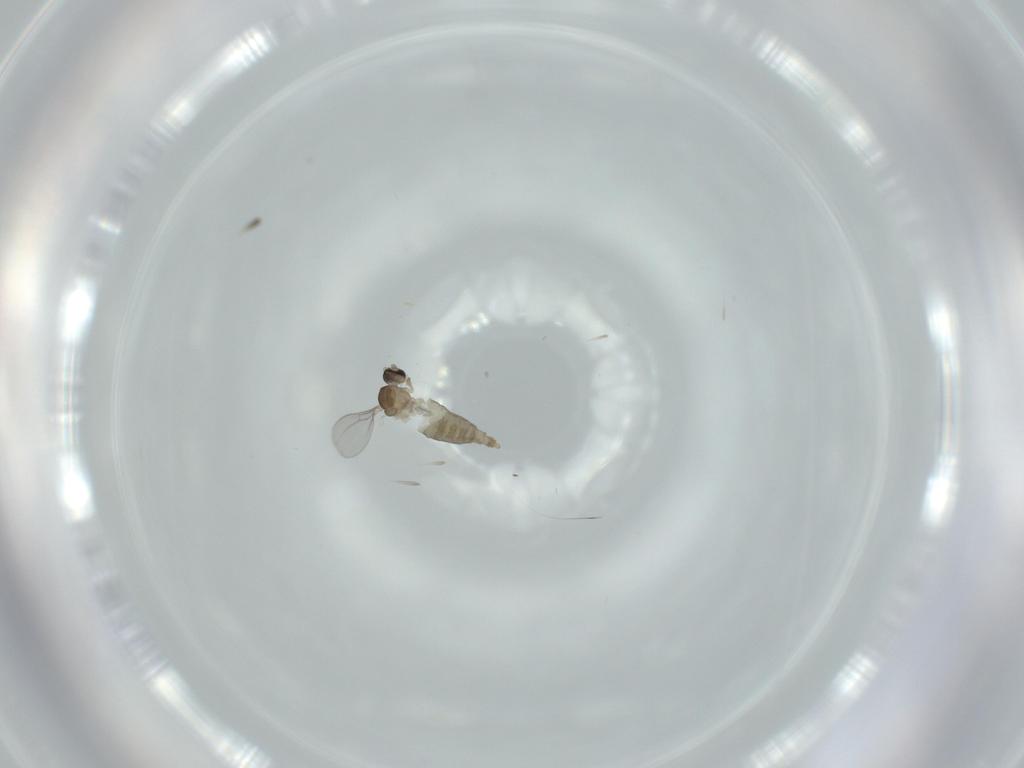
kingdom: Animalia
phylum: Arthropoda
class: Insecta
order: Diptera
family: Cecidomyiidae
